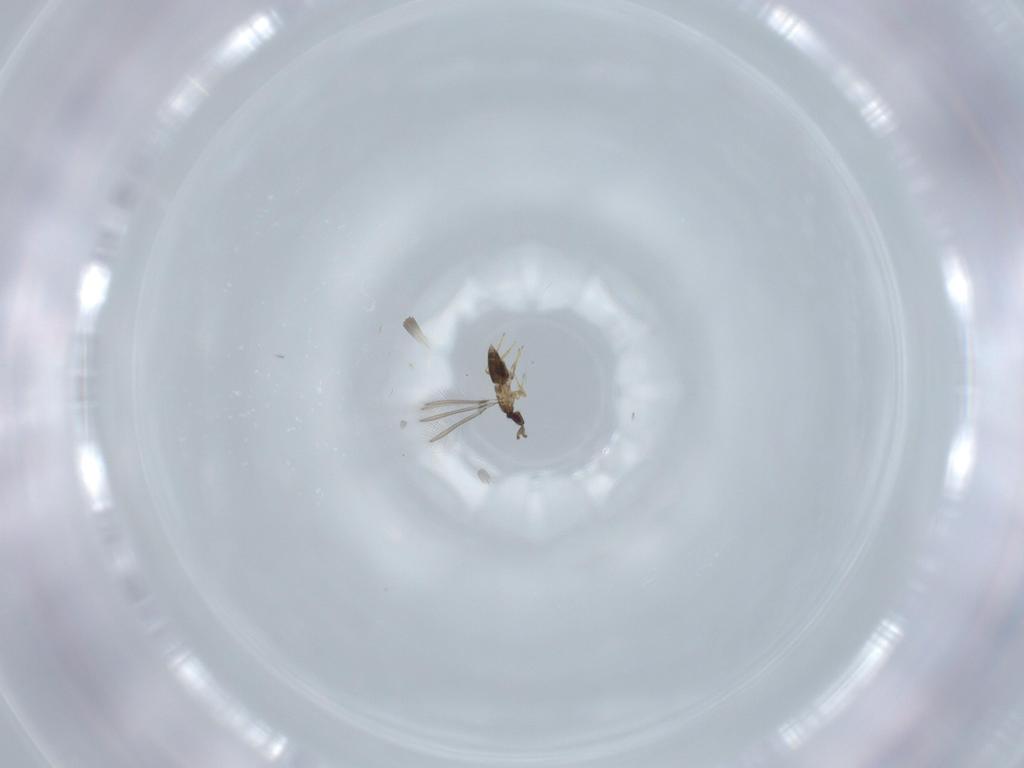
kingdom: Animalia
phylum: Arthropoda
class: Insecta
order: Hymenoptera
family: Mymaridae
